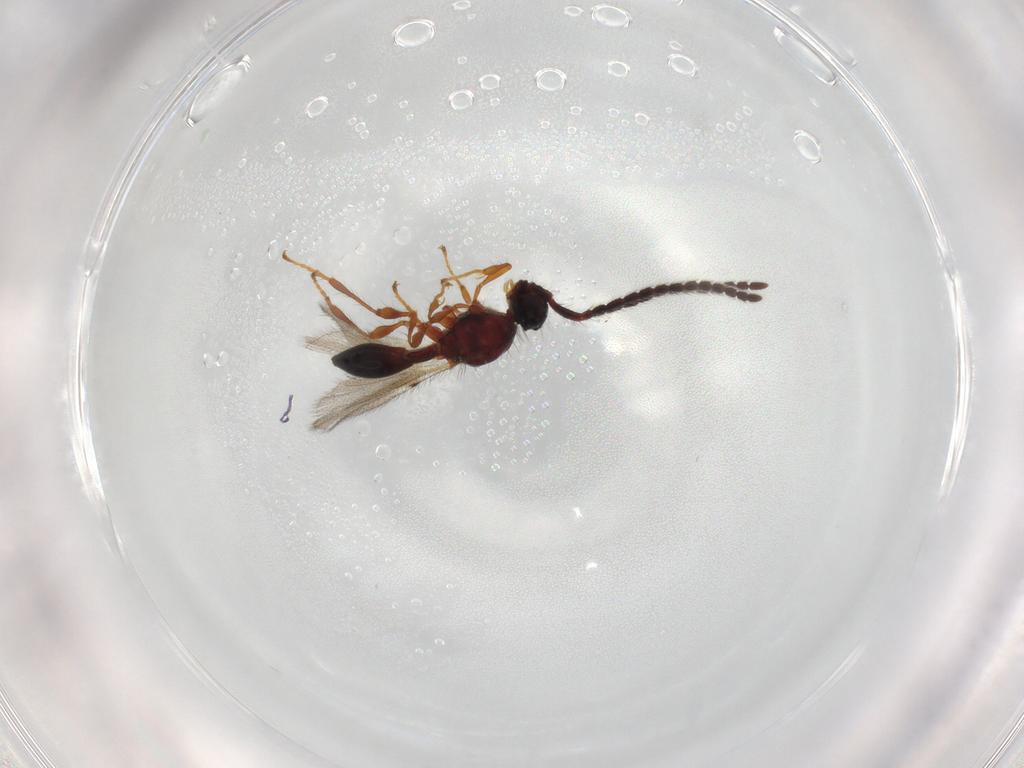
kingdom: Animalia
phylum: Arthropoda
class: Insecta
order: Hymenoptera
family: Diapriidae
